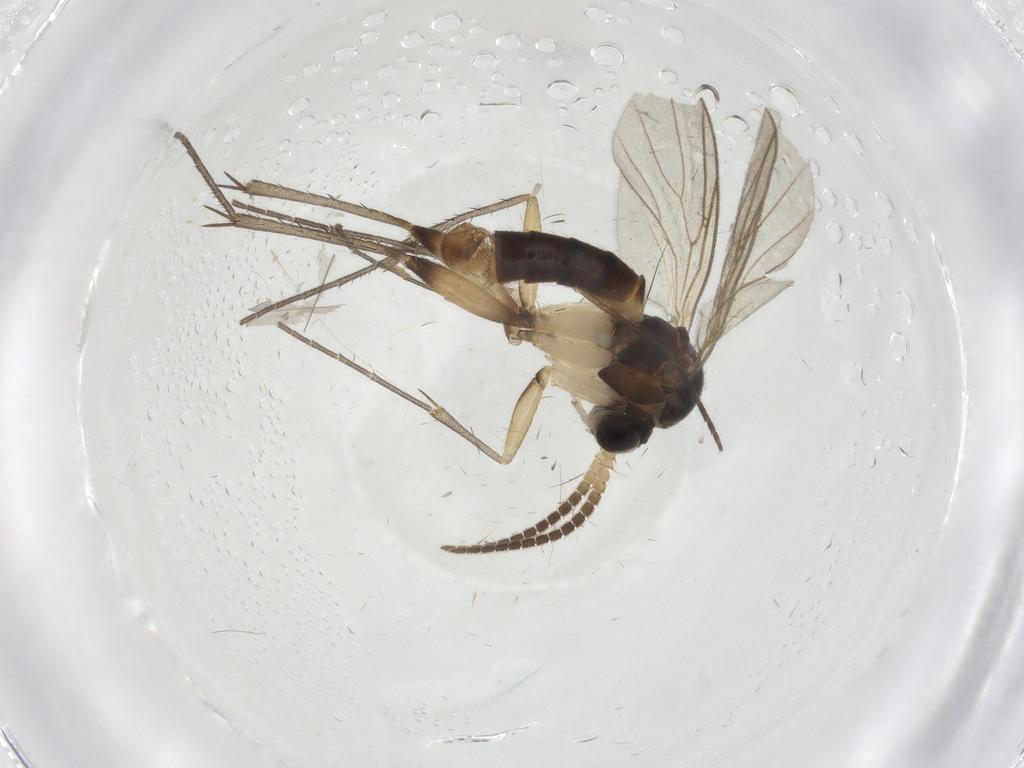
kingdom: Animalia
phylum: Arthropoda
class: Insecta
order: Diptera
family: Mycetophilidae
